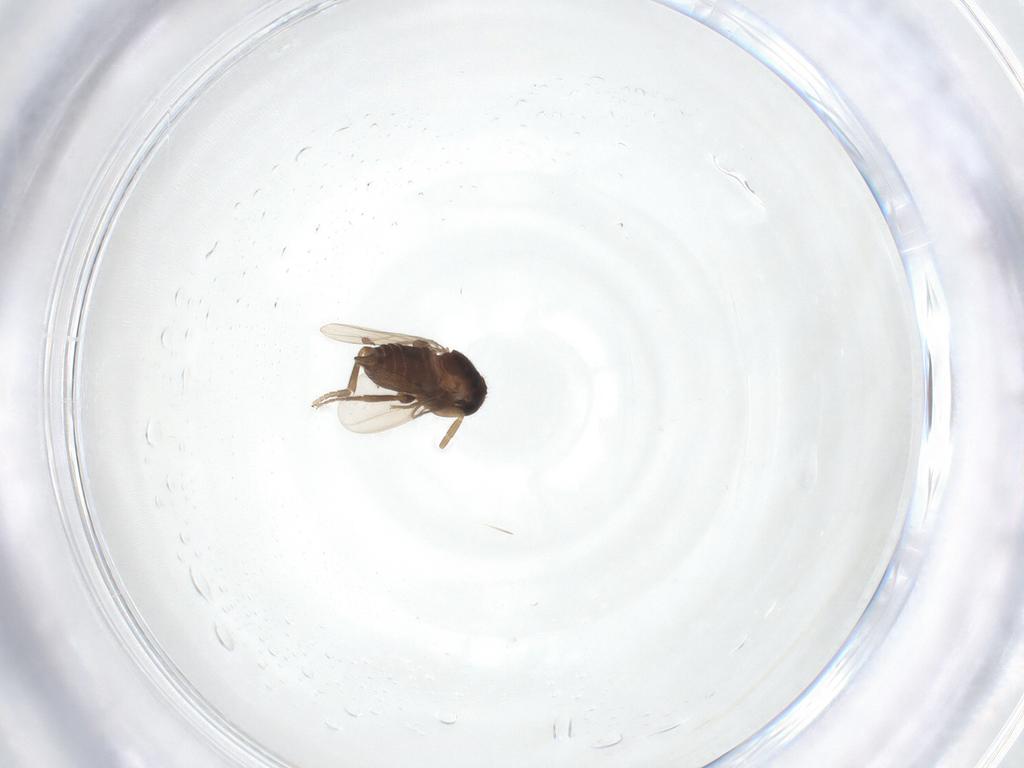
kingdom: Animalia
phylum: Arthropoda
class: Insecta
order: Diptera
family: Phoridae
